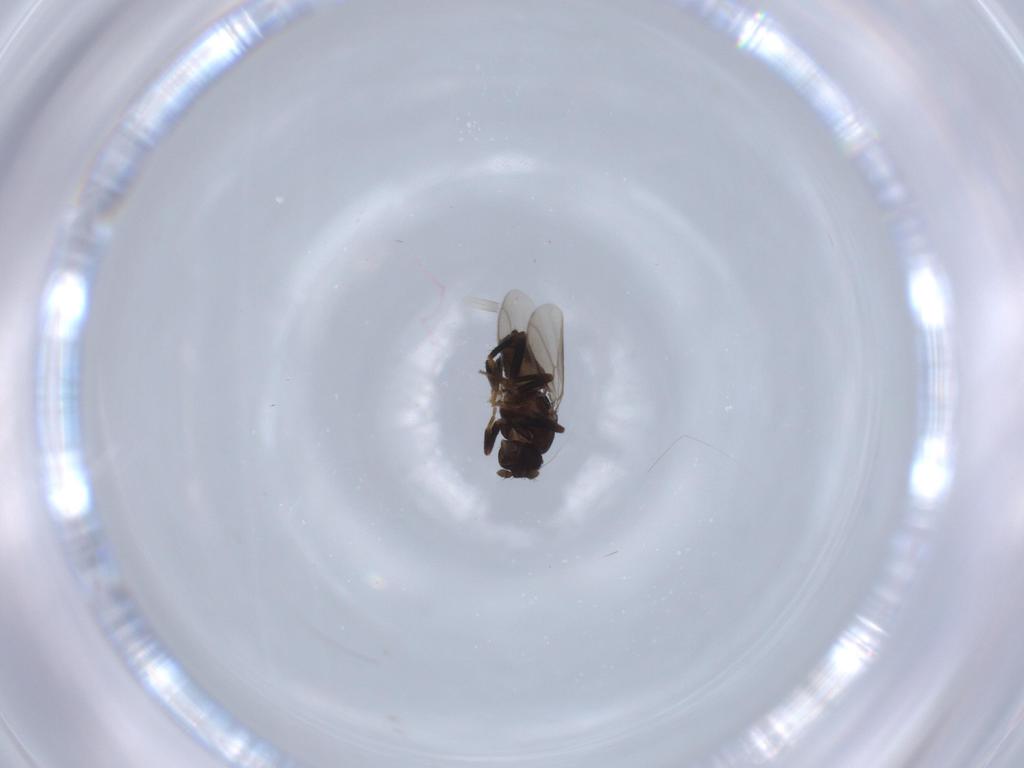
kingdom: Animalia
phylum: Arthropoda
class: Insecta
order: Diptera
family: Sphaeroceridae
